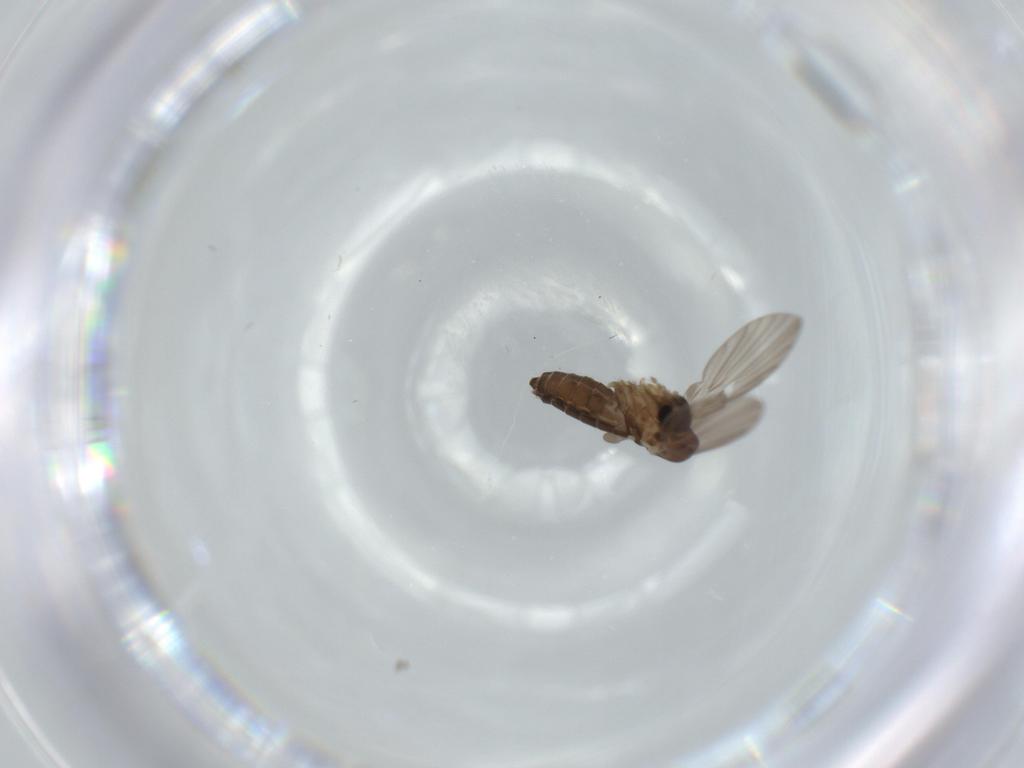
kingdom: Animalia
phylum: Arthropoda
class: Insecta
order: Diptera
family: Psychodidae
